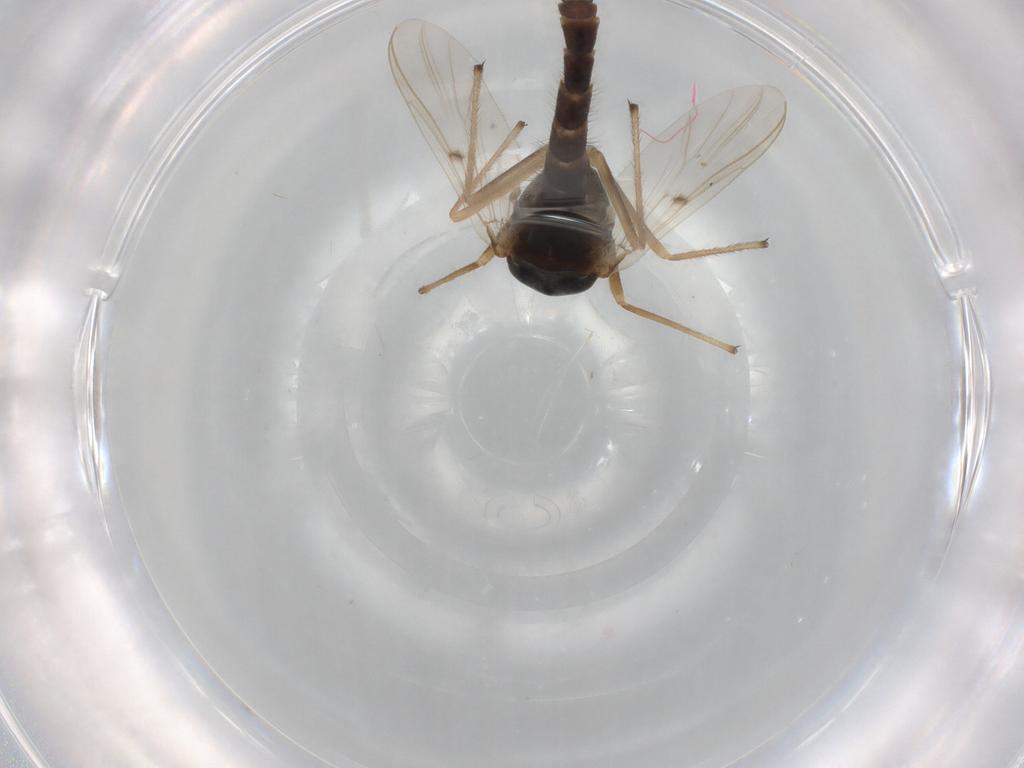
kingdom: Animalia
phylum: Arthropoda
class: Insecta
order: Diptera
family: Chironomidae
